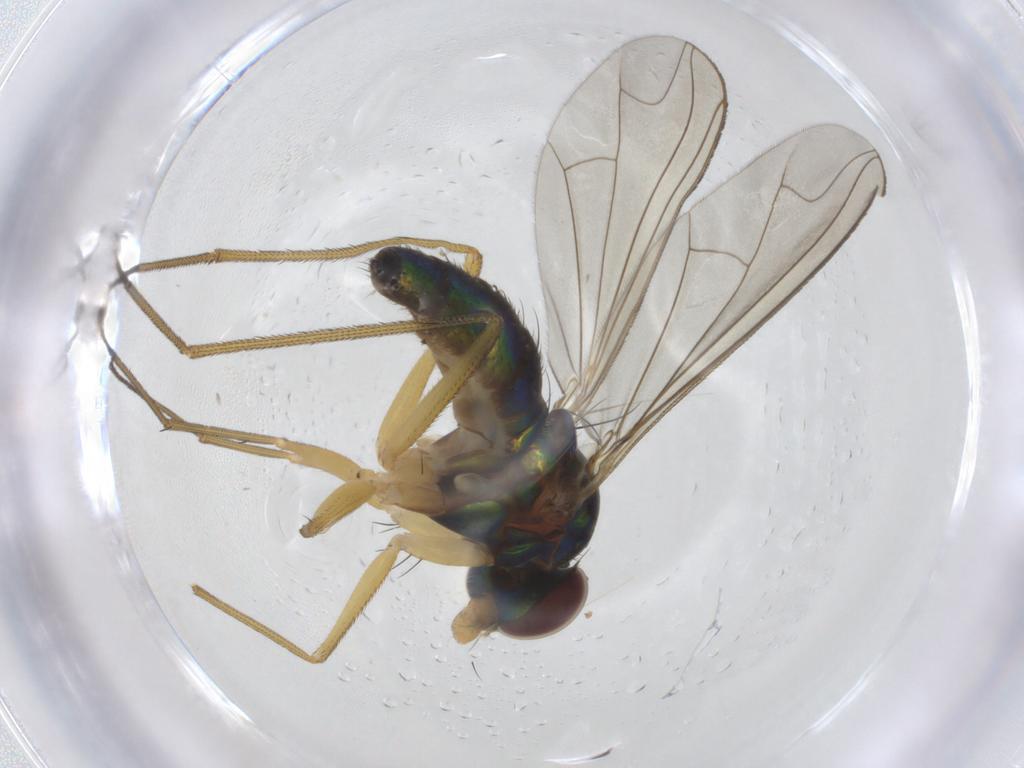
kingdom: Animalia
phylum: Arthropoda
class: Insecta
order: Diptera
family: Dolichopodidae
